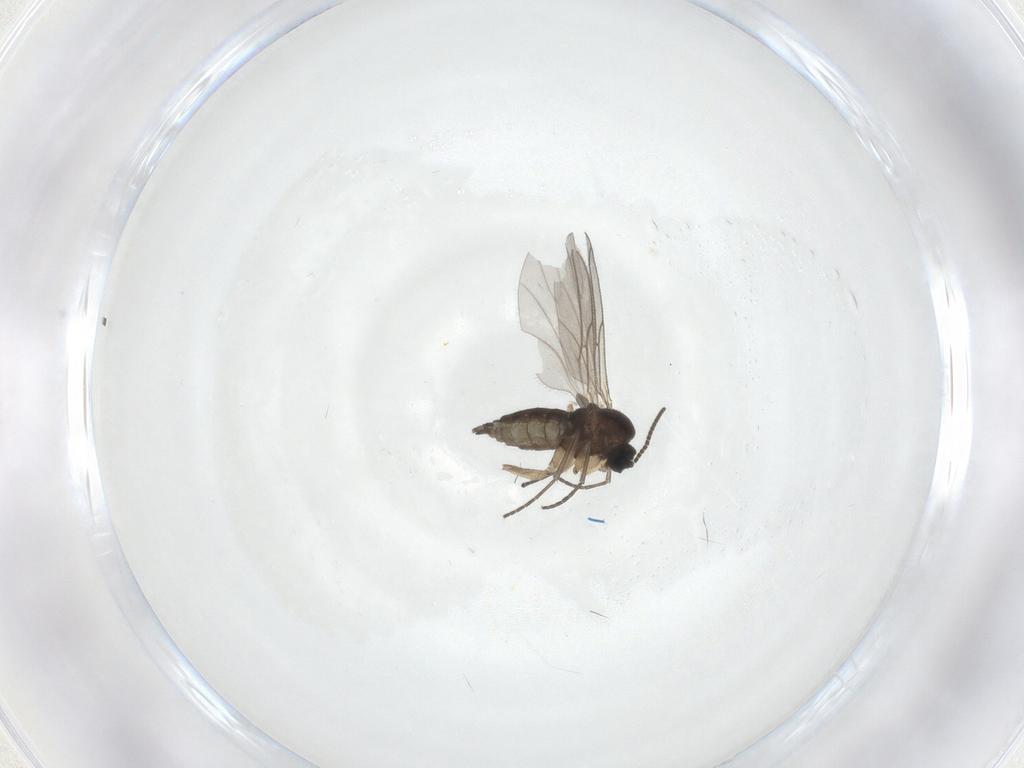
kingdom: Animalia
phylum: Arthropoda
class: Insecta
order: Diptera
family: Sciaridae
